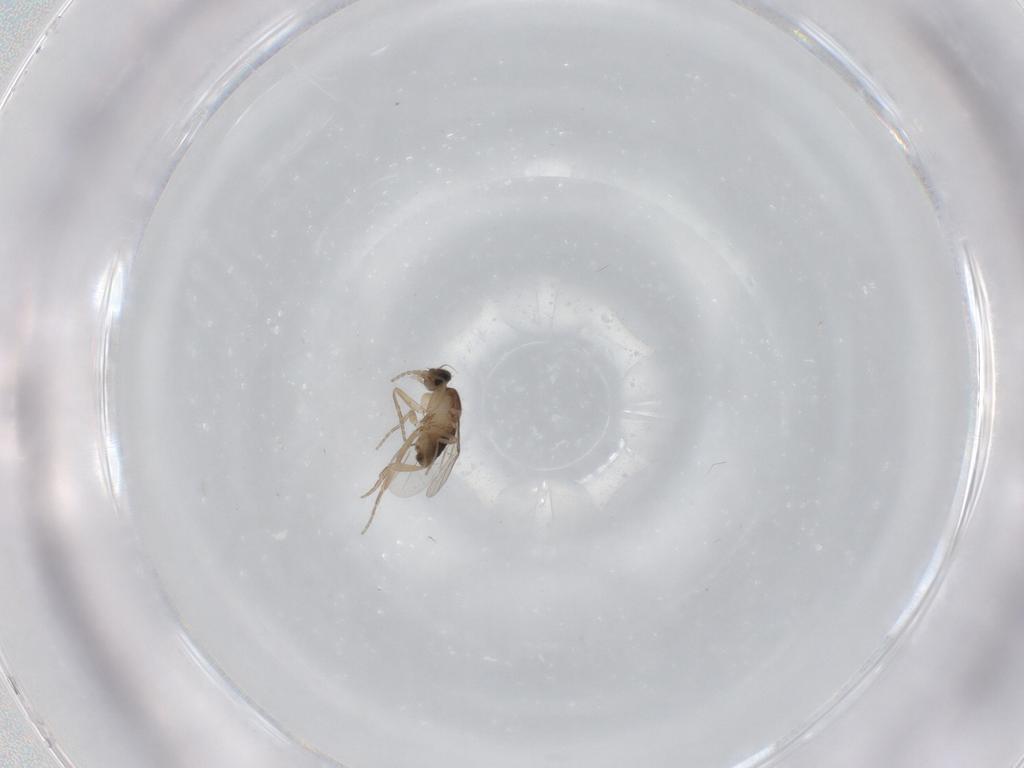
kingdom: Animalia
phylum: Arthropoda
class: Insecta
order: Diptera
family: Phoridae
